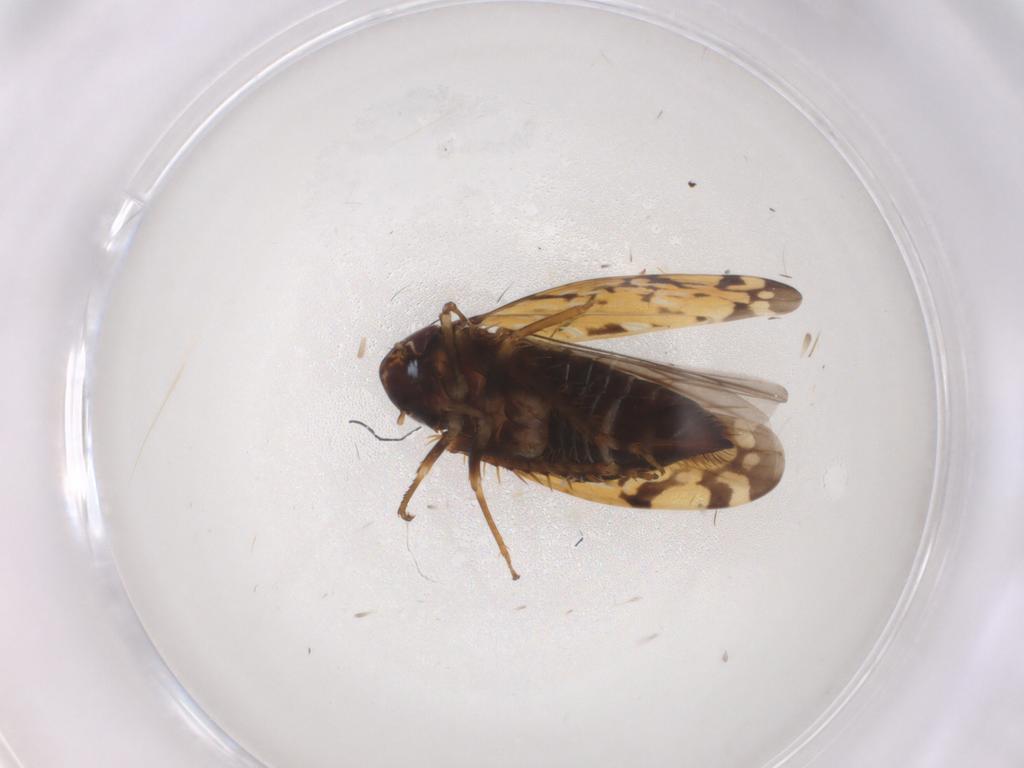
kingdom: Animalia
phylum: Arthropoda
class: Insecta
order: Hemiptera
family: Cicadellidae
